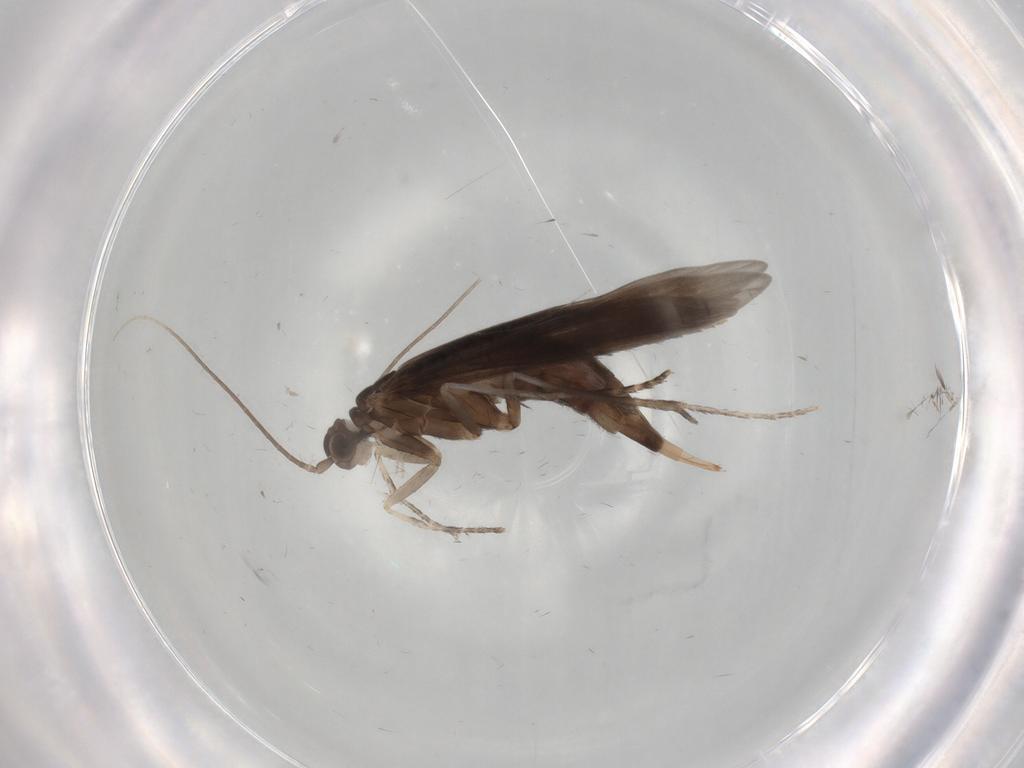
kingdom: Animalia
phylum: Arthropoda
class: Insecta
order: Trichoptera
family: Xiphocentronidae
